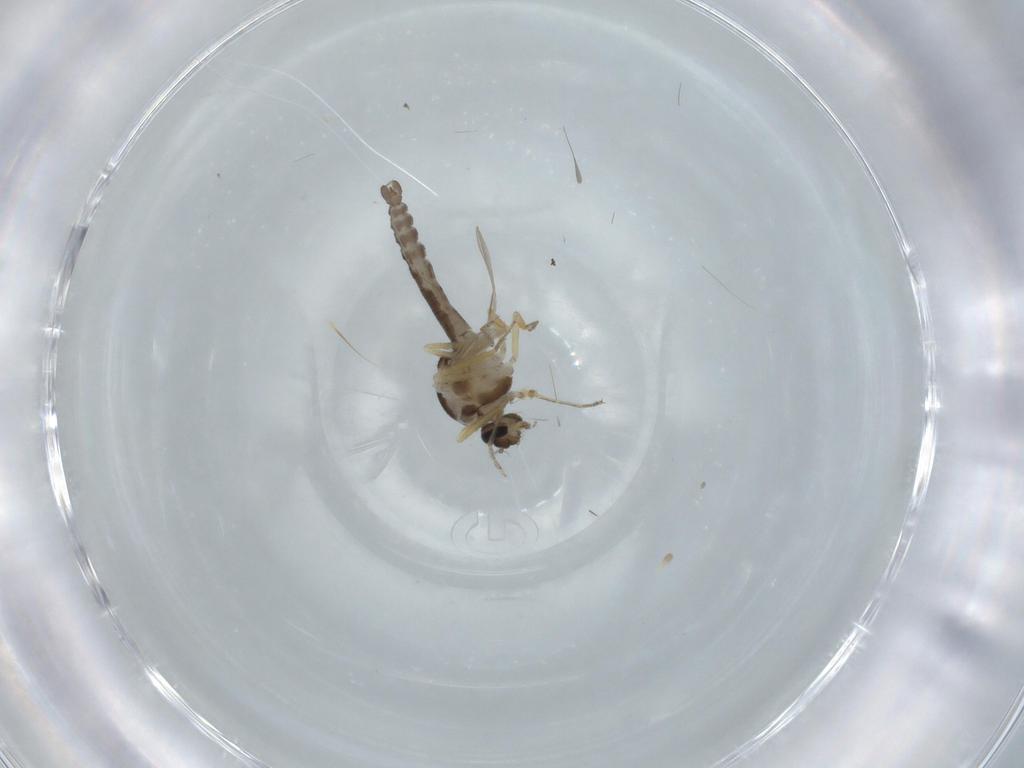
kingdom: Animalia
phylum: Arthropoda
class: Insecta
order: Diptera
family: Ceratopogonidae
